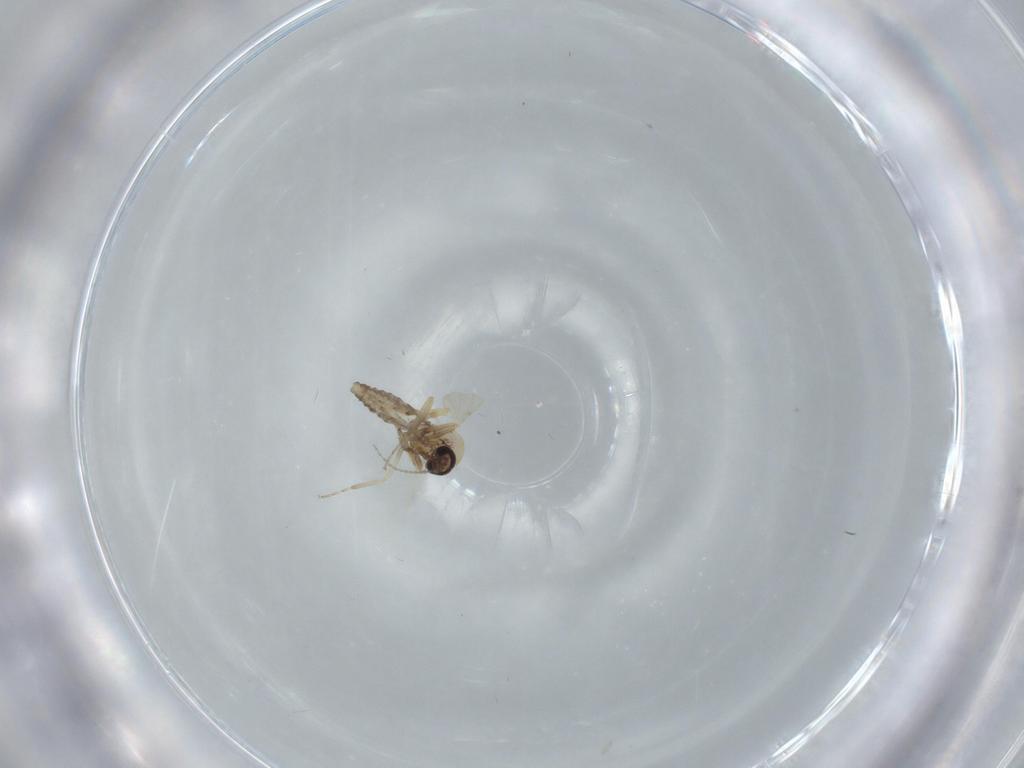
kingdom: Animalia
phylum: Arthropoda
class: Insecta
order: Diptera
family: Ceratopogonidae
